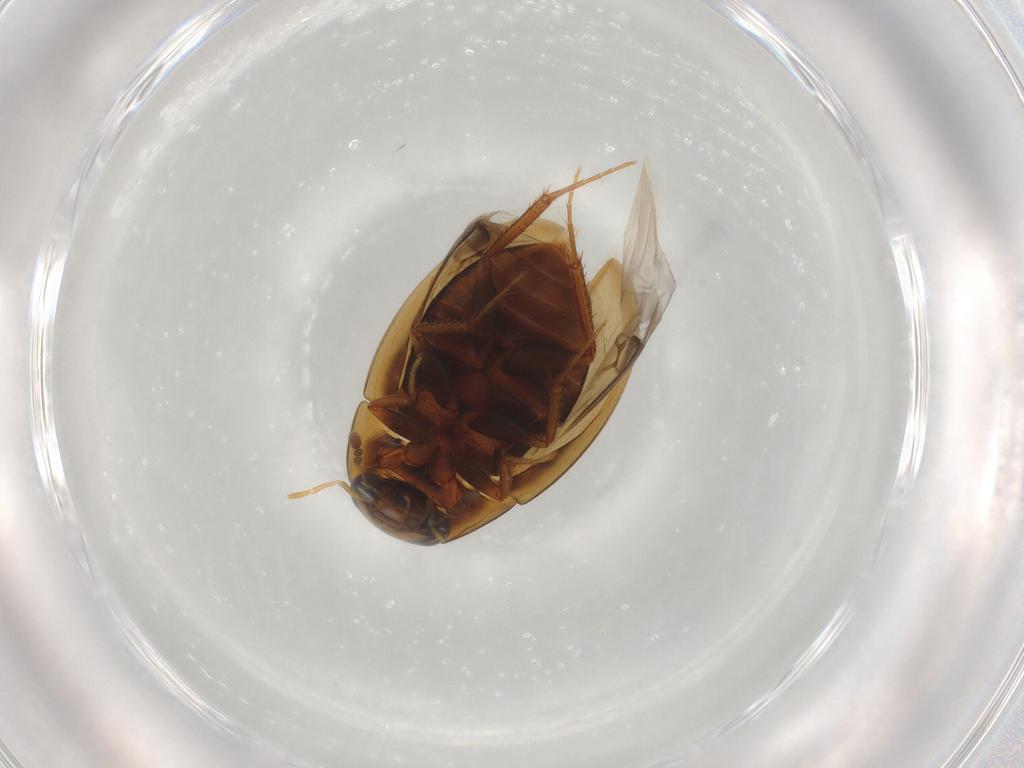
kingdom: Animalia
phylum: Arthropoda
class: Insecta
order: Coleoptera
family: Hydrophilidae
